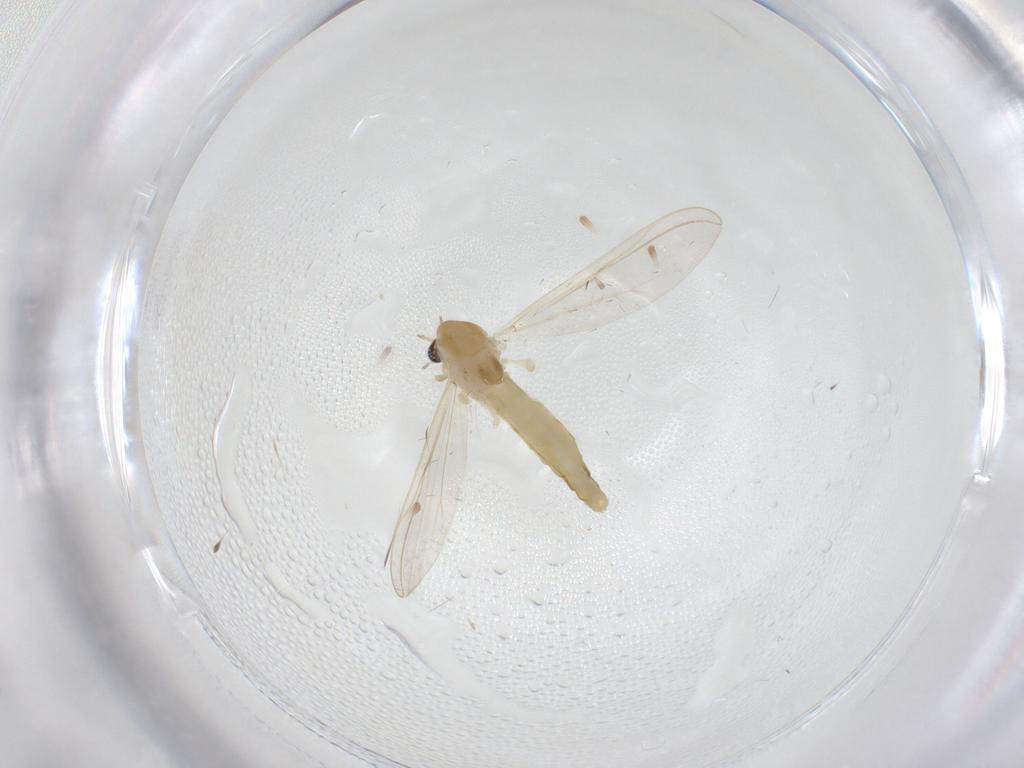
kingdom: Animalia
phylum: Arthropoda
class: Insecta
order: Diptera
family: Chironomidae
